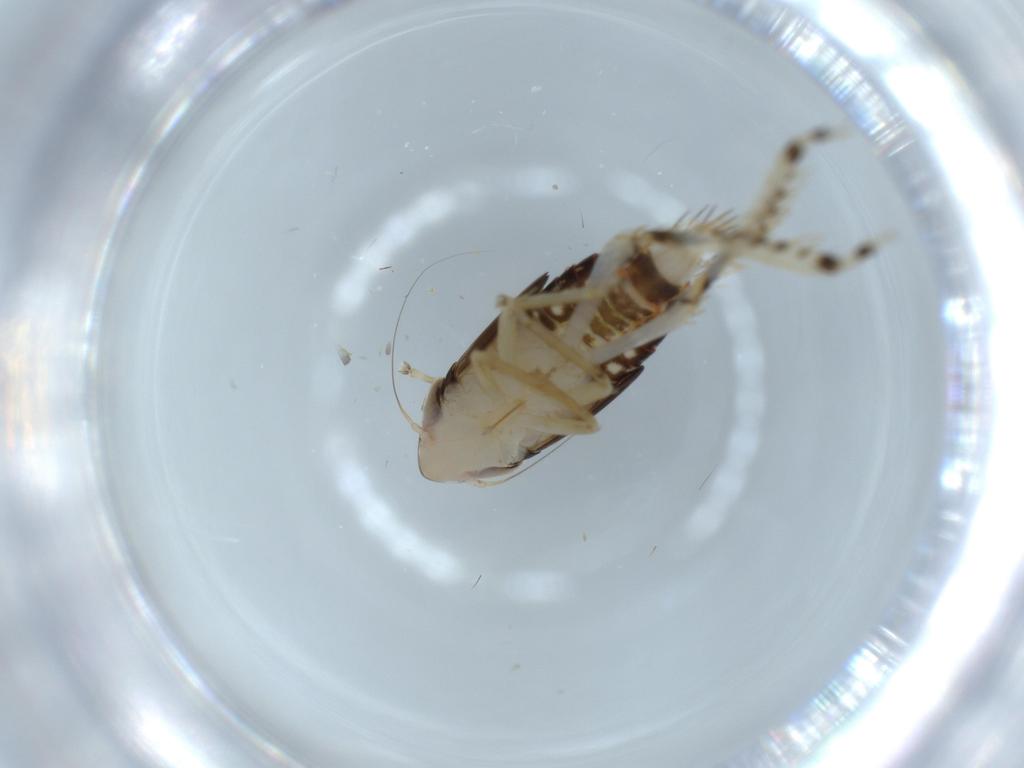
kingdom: Animalia
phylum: Arthropoda
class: Insecta
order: Hemiptera
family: Cicadellidae
